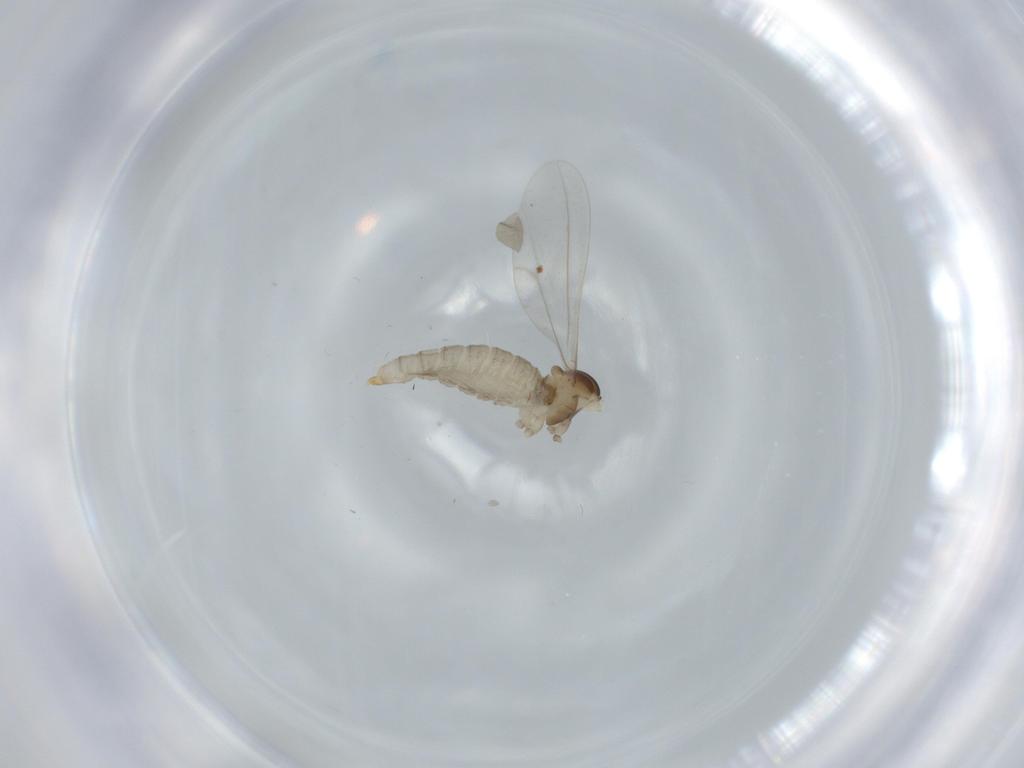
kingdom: Animalia
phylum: Arthropoda
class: Insecta
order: Diptera
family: Cecidomyiidae
